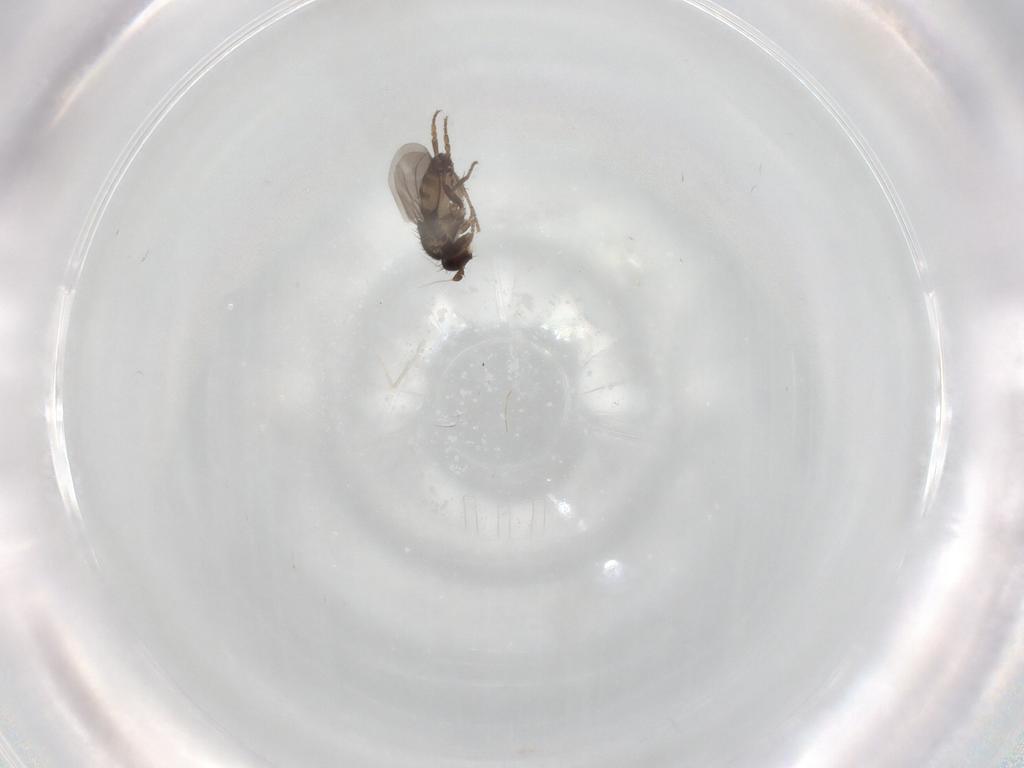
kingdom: Animalia
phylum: Arthropoda
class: Insecta
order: Diptera
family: Sphaeroceridae
